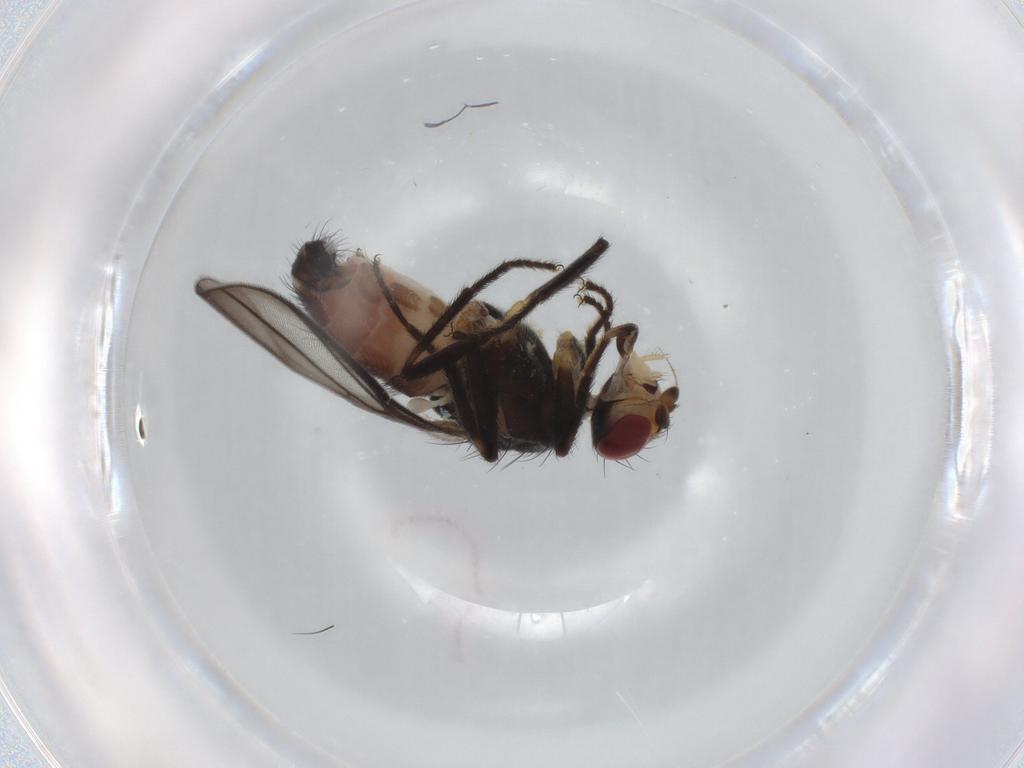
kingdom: Animalia
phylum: Arthropoda
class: Insecta
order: Diptera
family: Chloropidae
